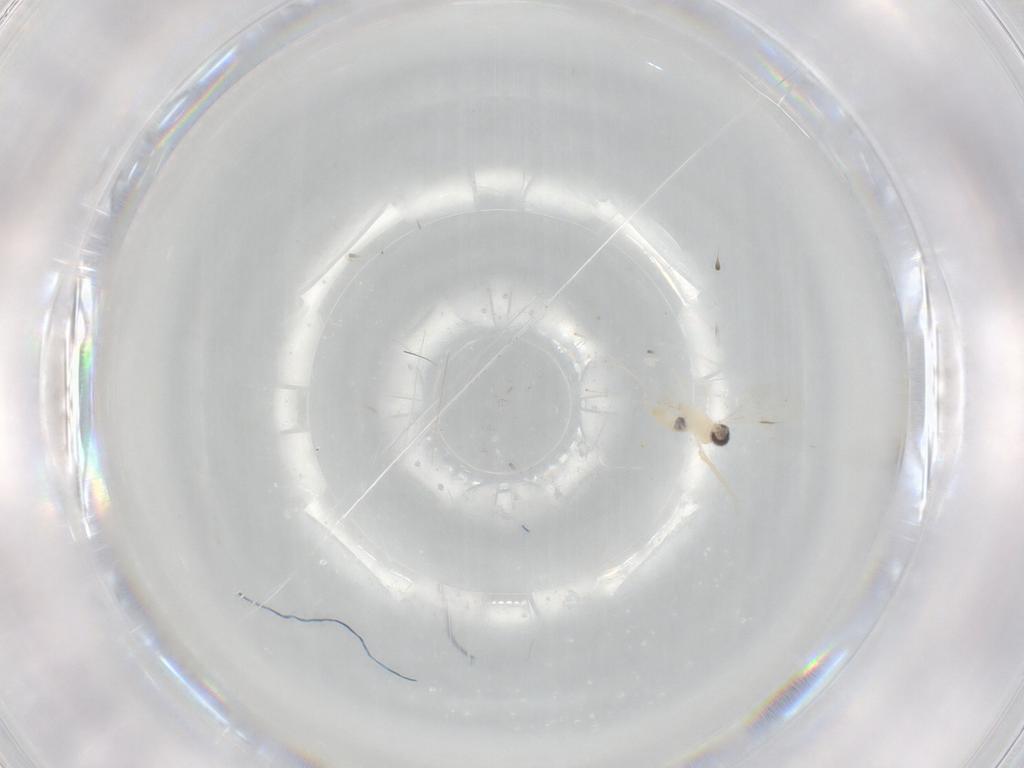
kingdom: Animalia
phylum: Arthropoda
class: Insecta
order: Diptera
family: Cecidomyiidae
